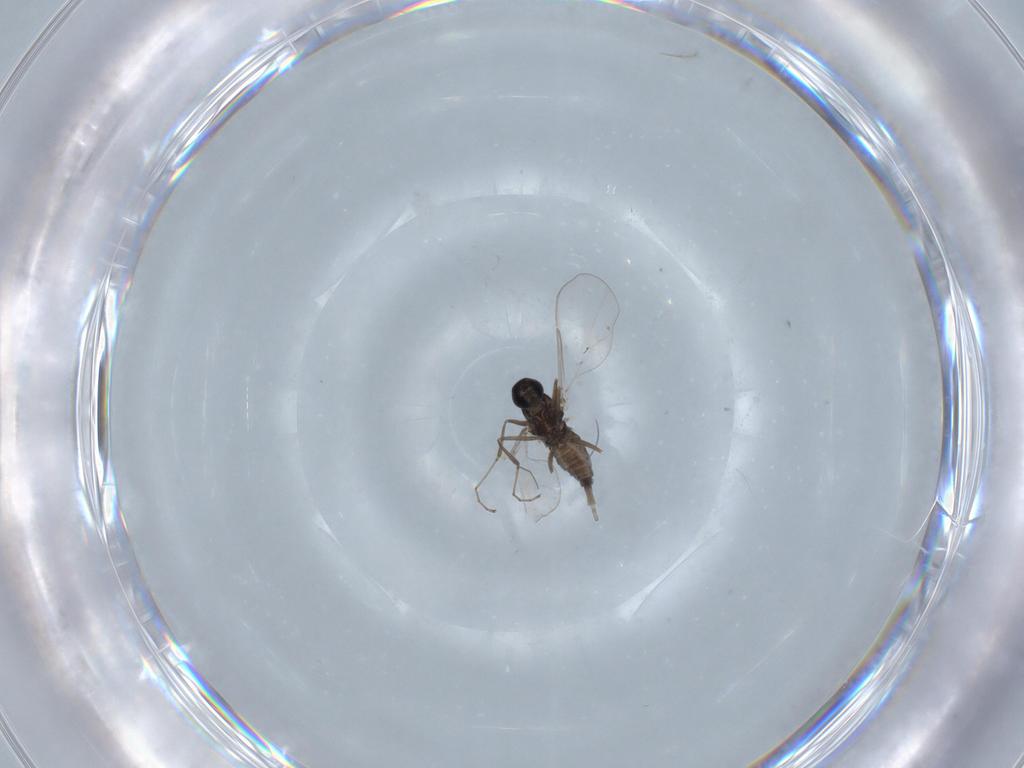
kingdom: Animalia
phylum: Arthropoda
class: Insecta
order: Diptera
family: Cecidomyiidae
